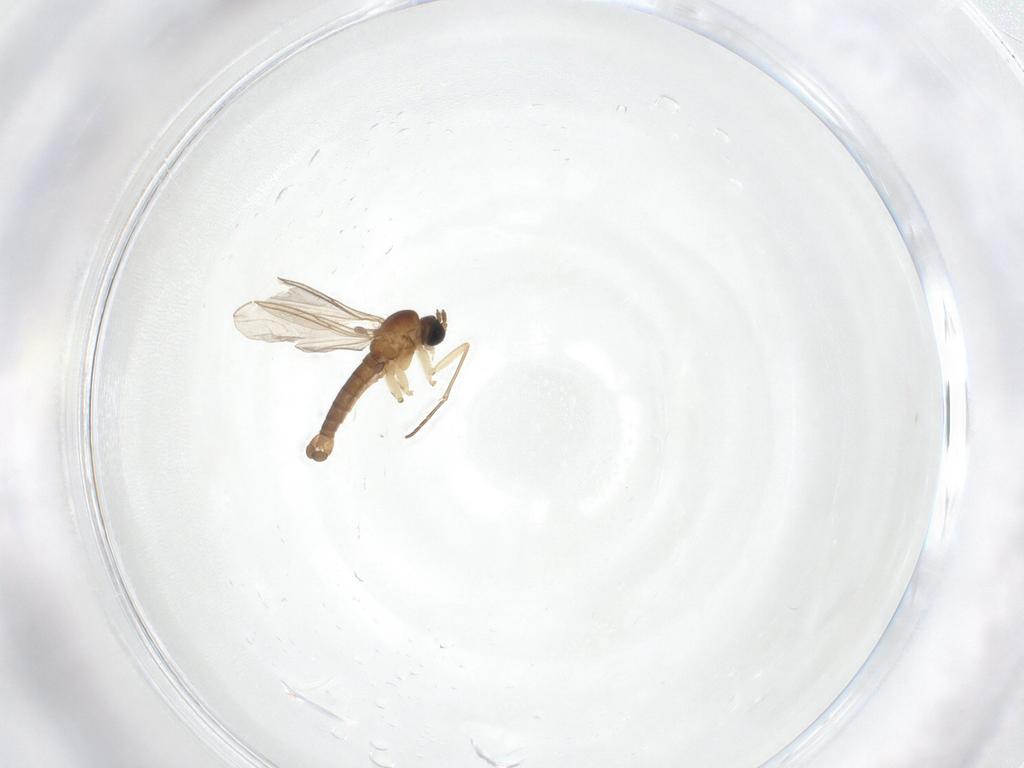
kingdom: Animalia
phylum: Arthropoda
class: Insecta
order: Diptera
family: Sciaridae
